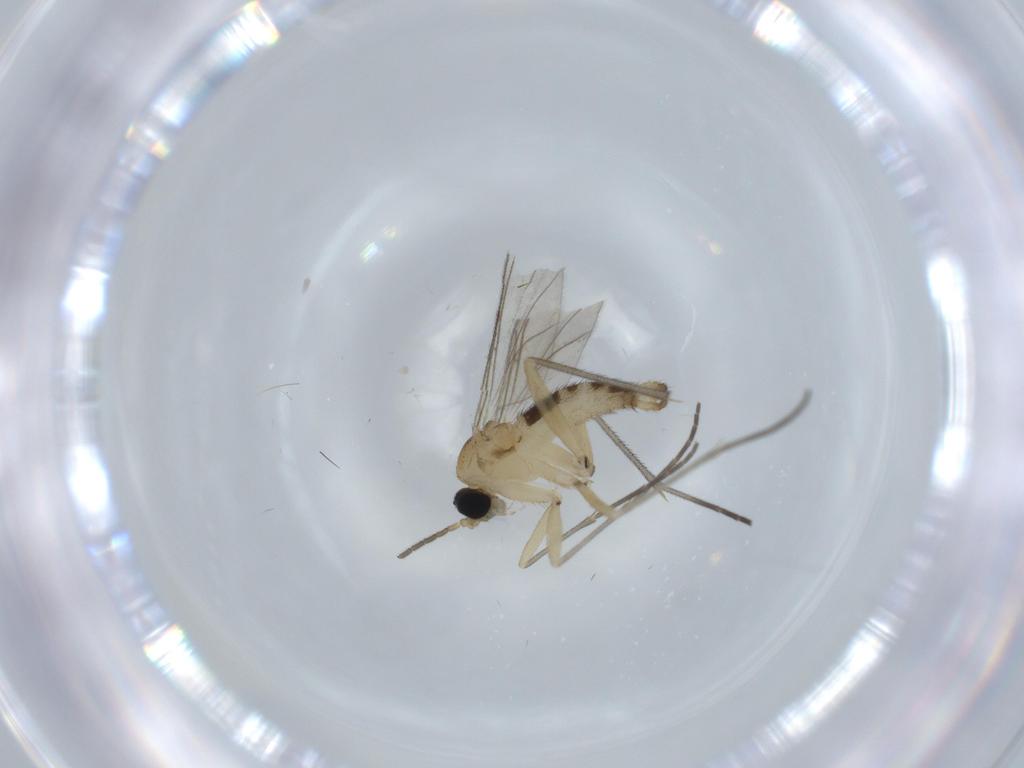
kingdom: Animalia
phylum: Arthropoda
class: Insecta
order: Diptera
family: Sciaridae
